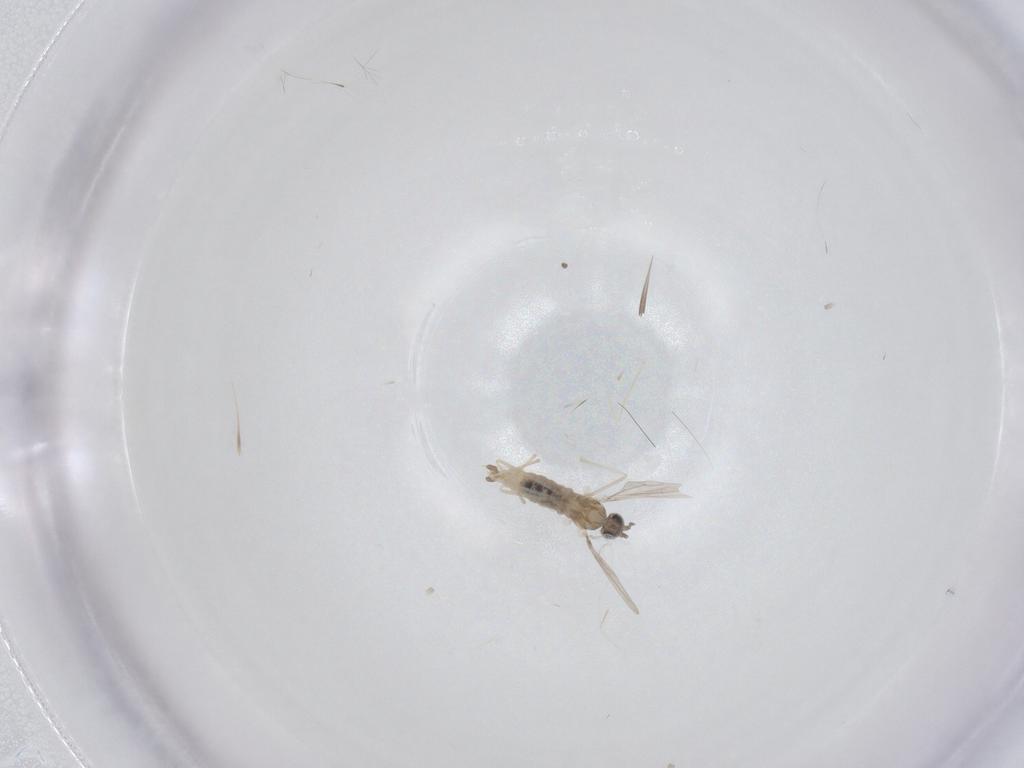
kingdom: Animalia
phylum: Arthropoda
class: Insecta
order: Diptera
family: Cecidomyiidae
